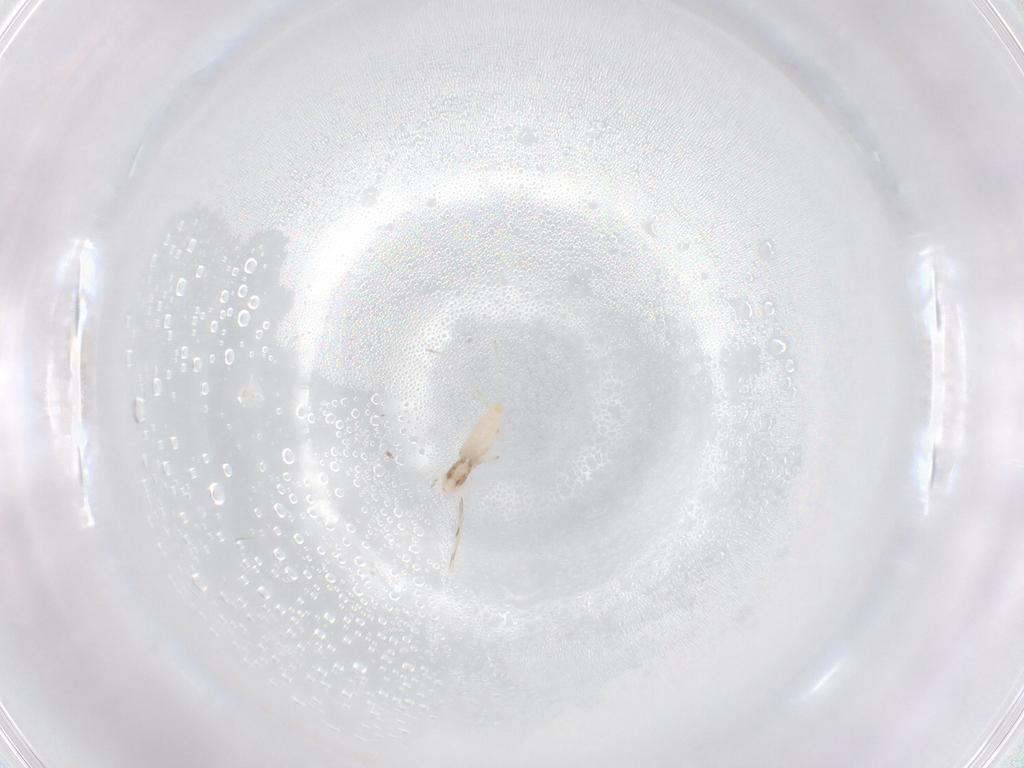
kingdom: Animalia
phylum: Arthropoda
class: Insecta
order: Diptera
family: Cecidomyiidae
